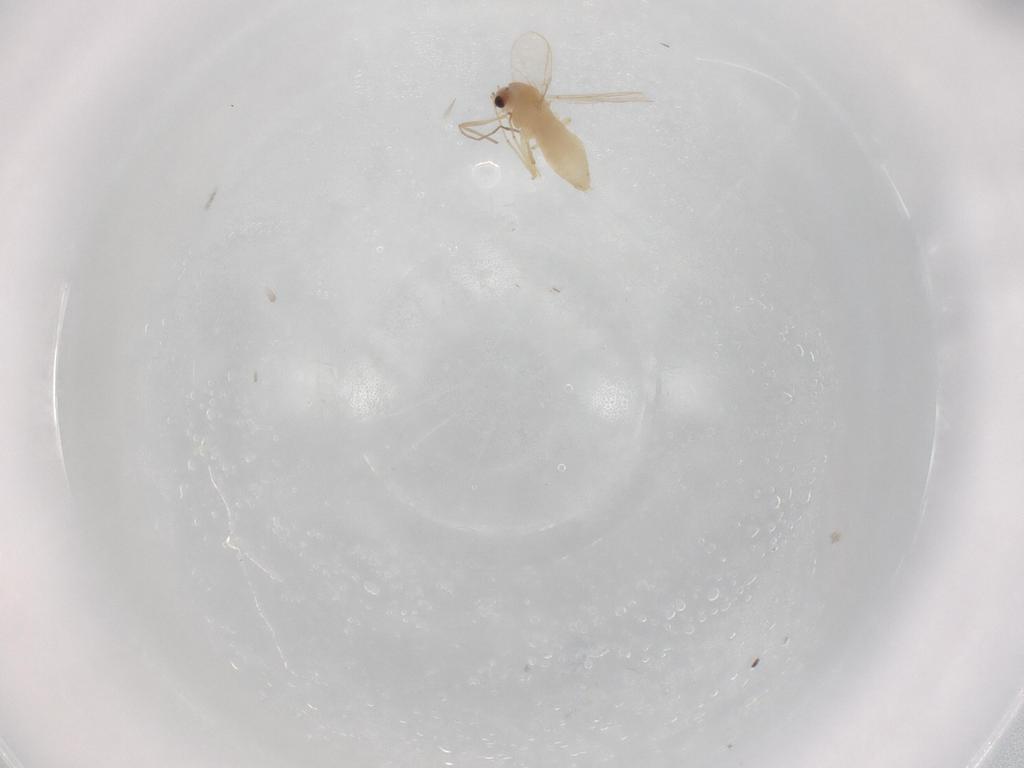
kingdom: Animalia
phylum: Arthropoda
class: Insecta
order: Diptera
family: Chironomidae
